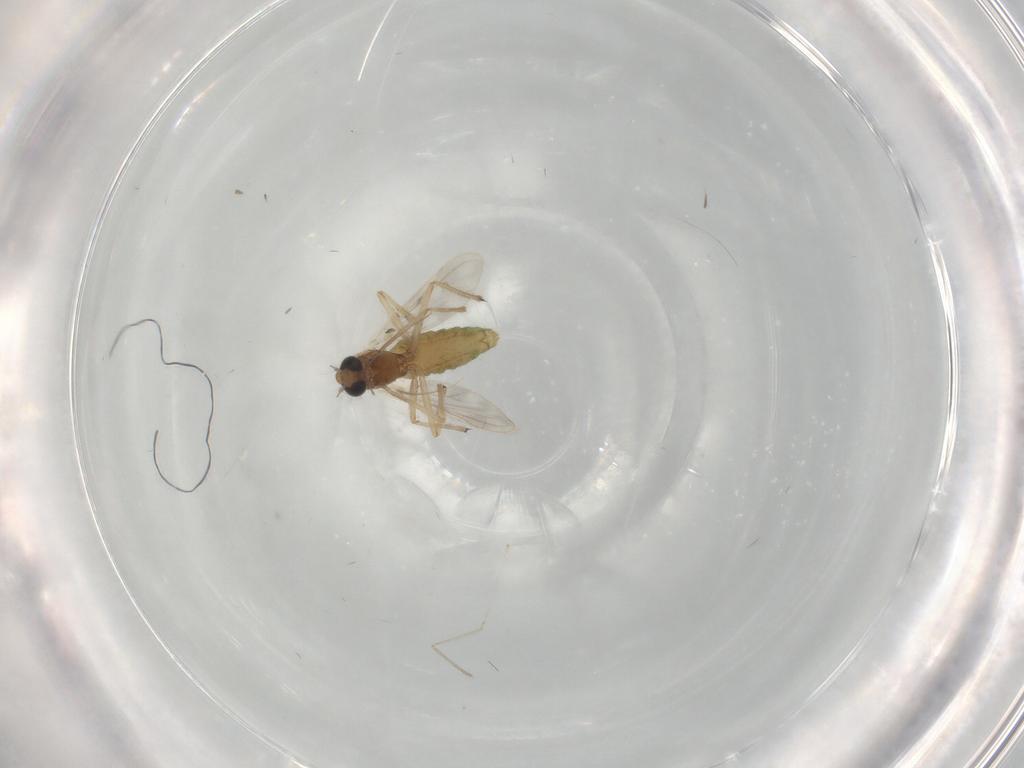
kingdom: Animalia
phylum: Arthropoda
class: Insecta
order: Diptera
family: Chironomidae
